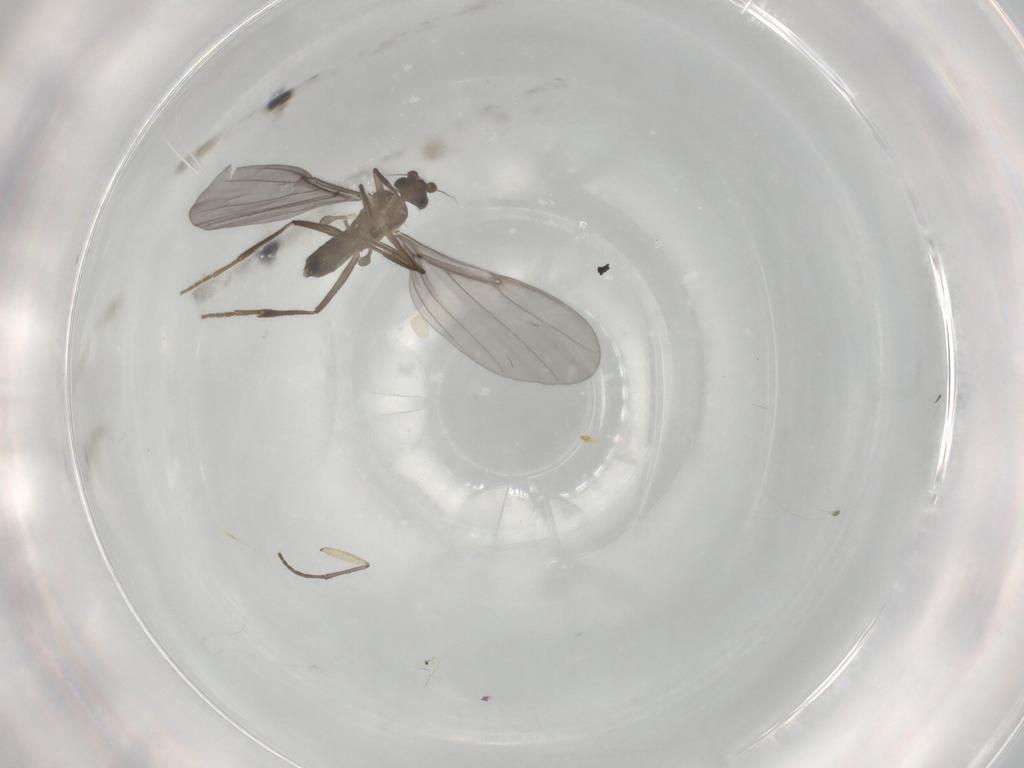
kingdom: Animalia
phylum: Arthropoda
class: Insecta
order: Diptera
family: Phoridae
